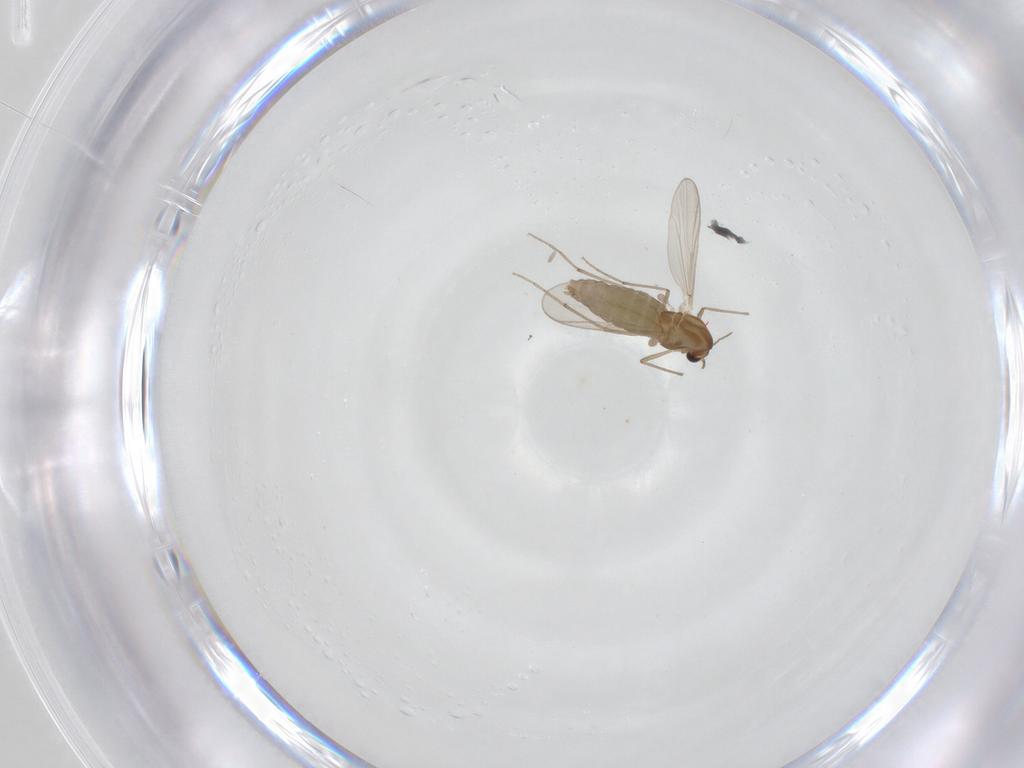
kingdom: Animalia
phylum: Arthropoda
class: Insecta
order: Diptera
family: Chironomidae
